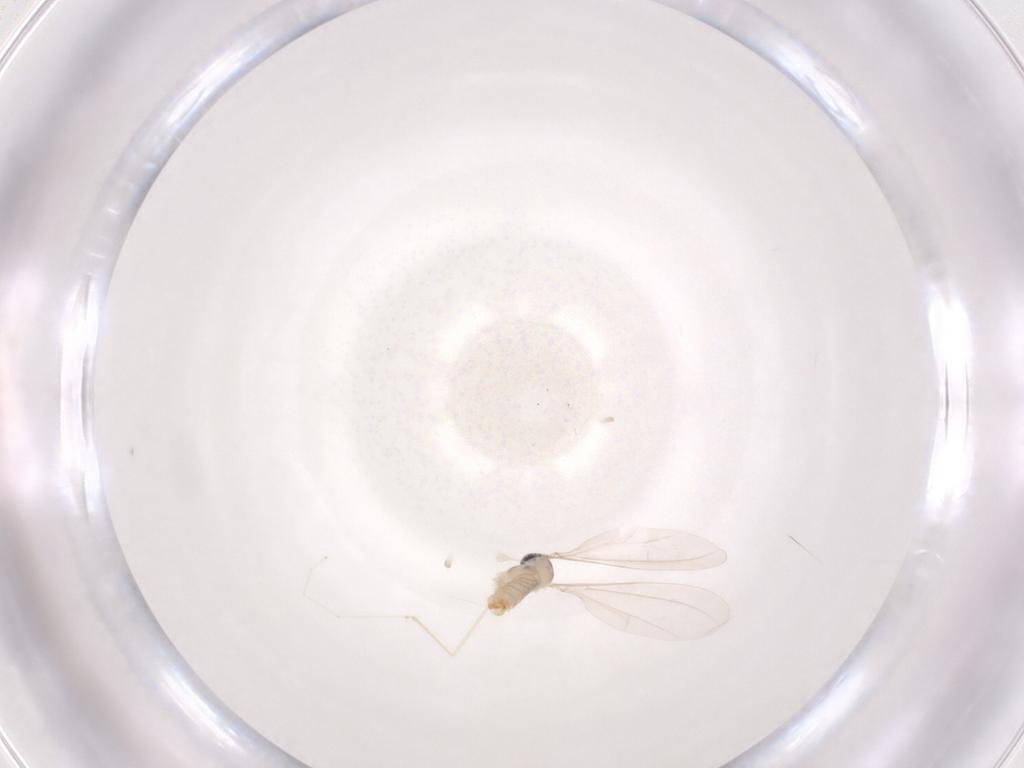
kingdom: Animalia
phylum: Arthropoda
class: Insecta
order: Diptera
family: Cecidomyiidae
